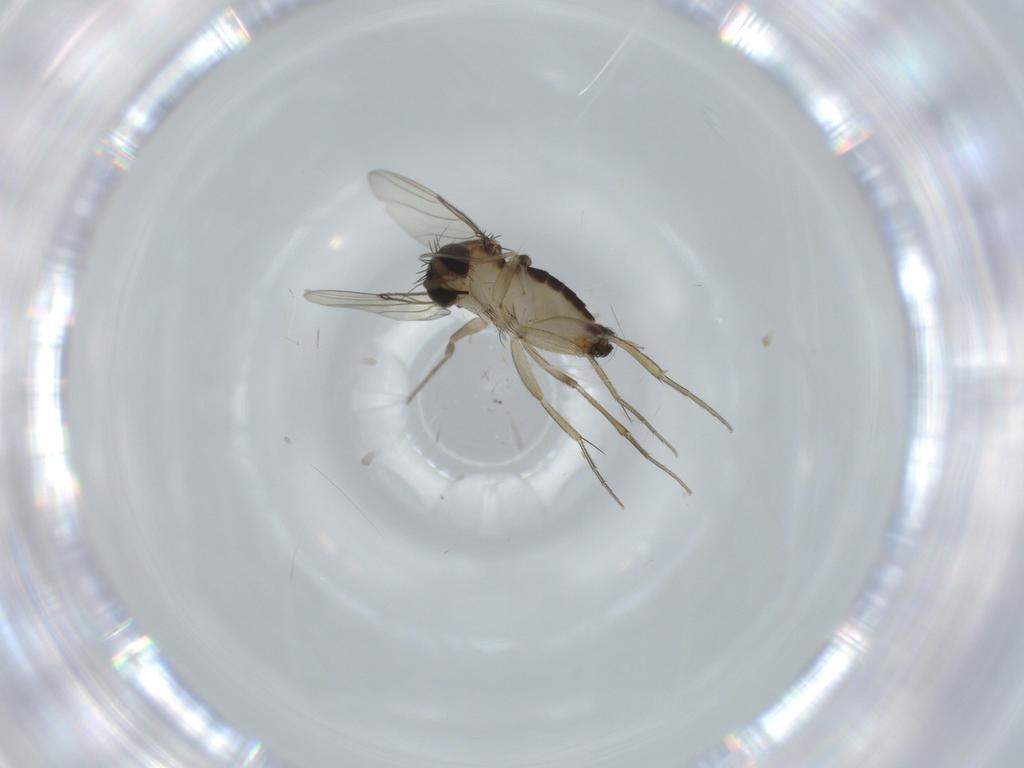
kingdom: Animalia
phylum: Arthropoda
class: Insecta
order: Diptera
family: Phoridae
